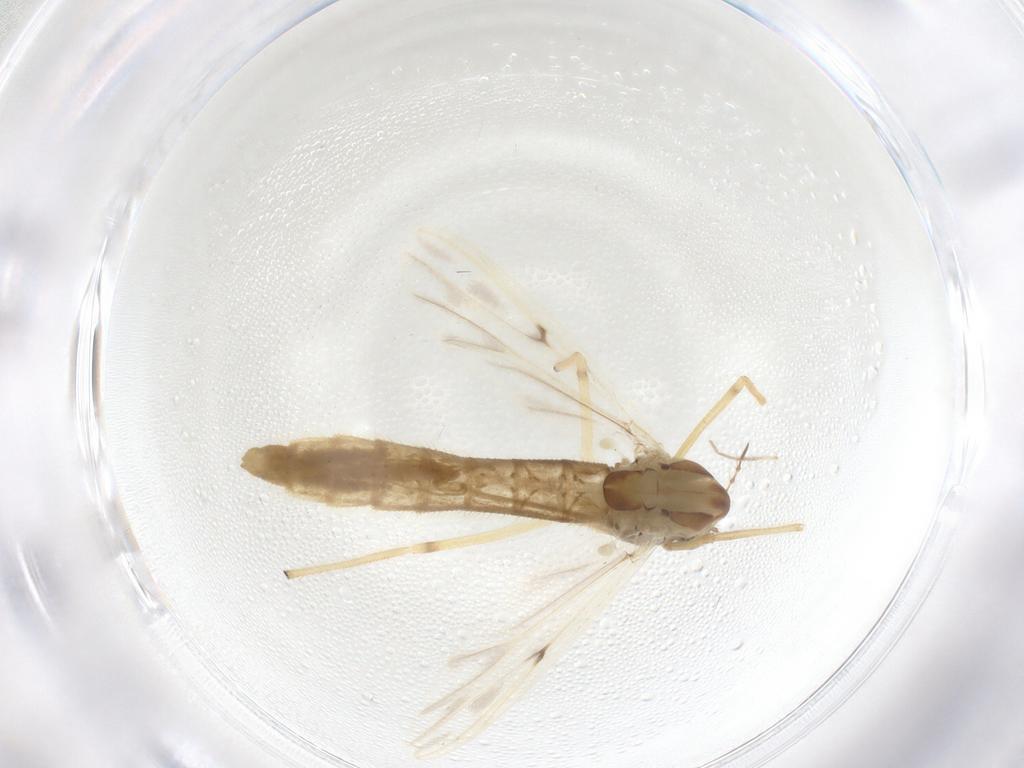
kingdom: Animalia
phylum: Arthropoda
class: Insecta
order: Diptera
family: Chironomidae
